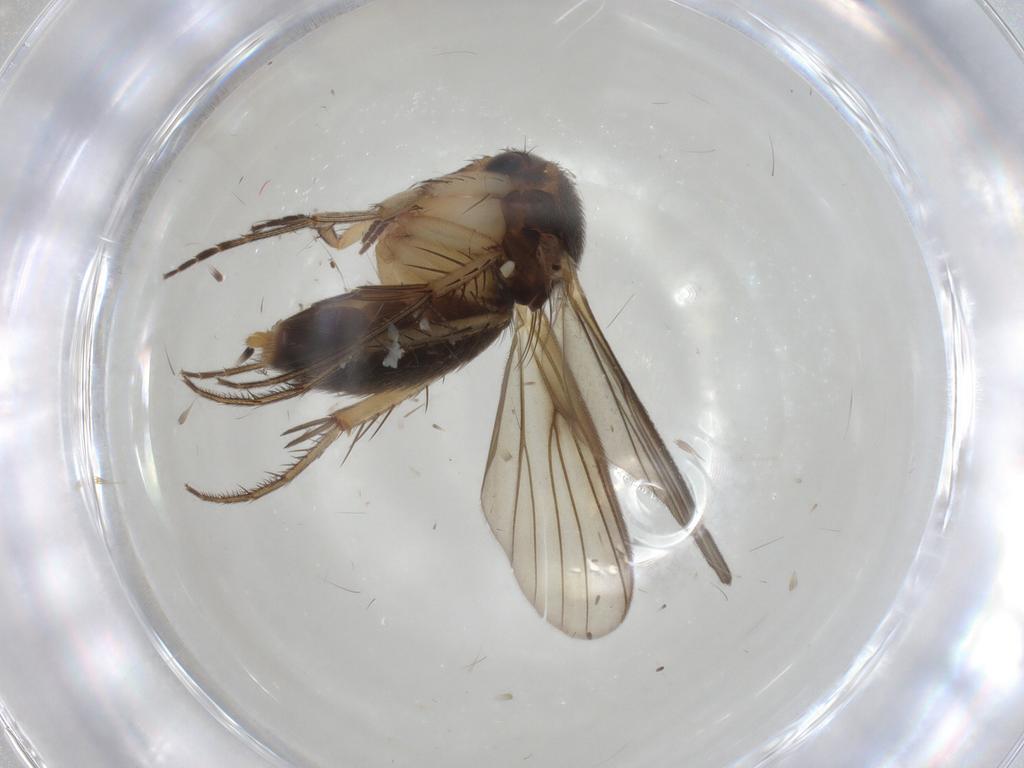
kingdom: Animalia
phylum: Arthropoda
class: Insecta
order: Diptera
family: Mycetophilidae
